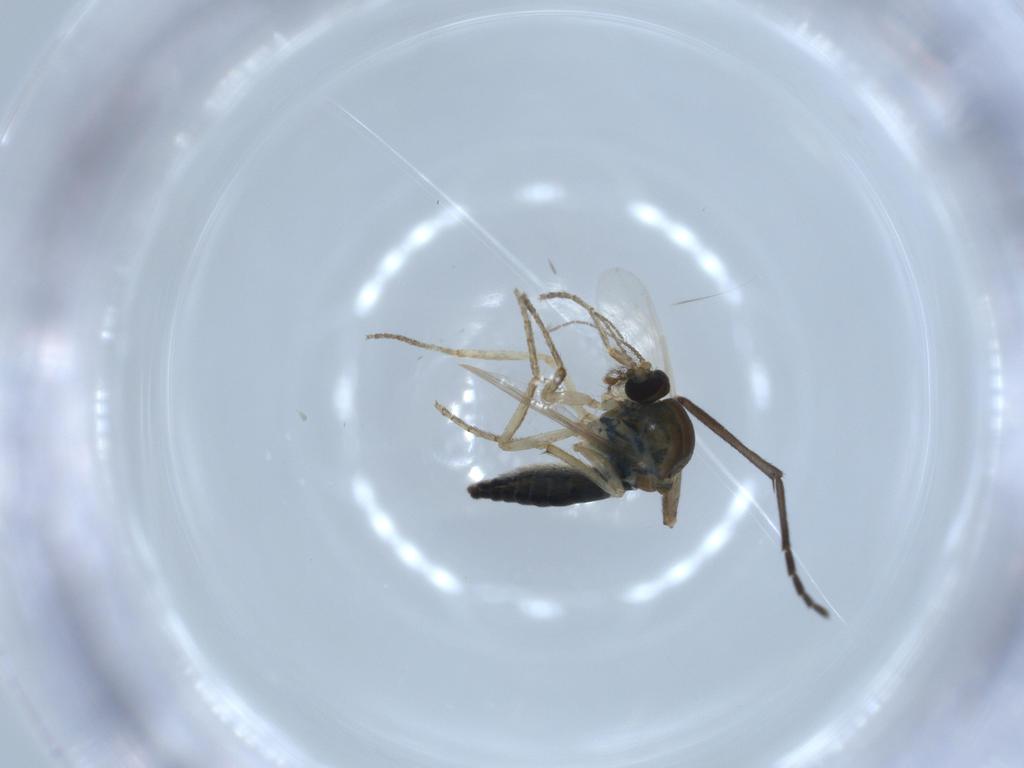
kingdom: Animalia
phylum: Arthropoda
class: Insecta
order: Diptera
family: Ceratopogonidae
